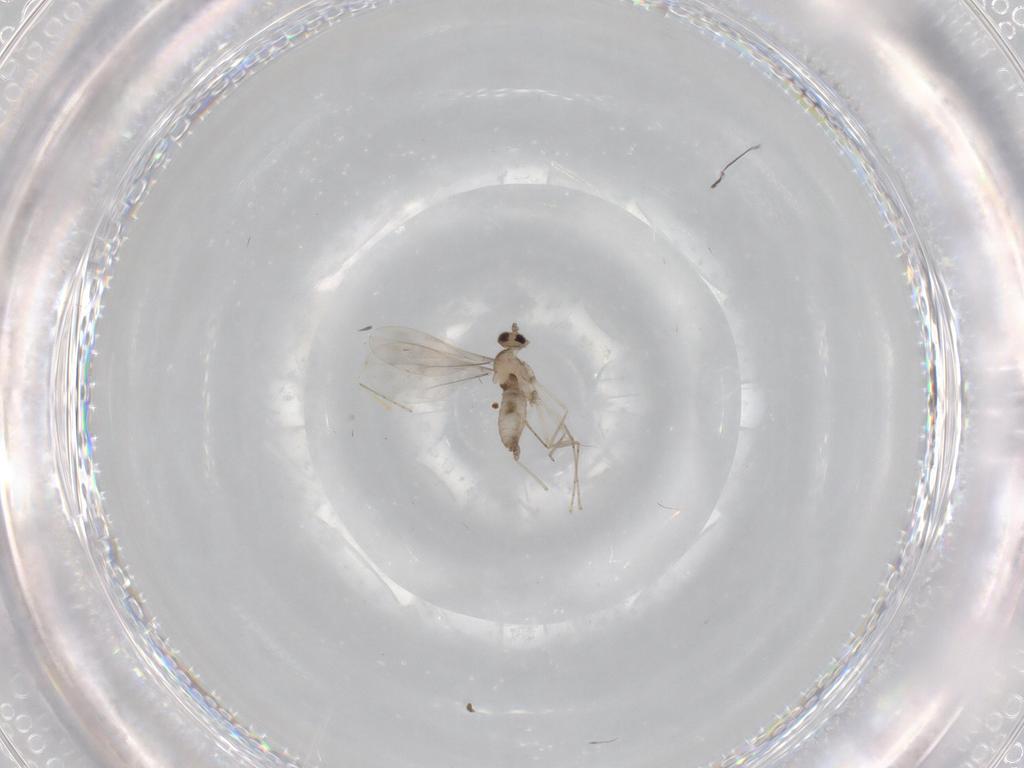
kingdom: Animalia
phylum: Arthropoda
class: Insecta
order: Diptera
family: Cecidomyiidae
